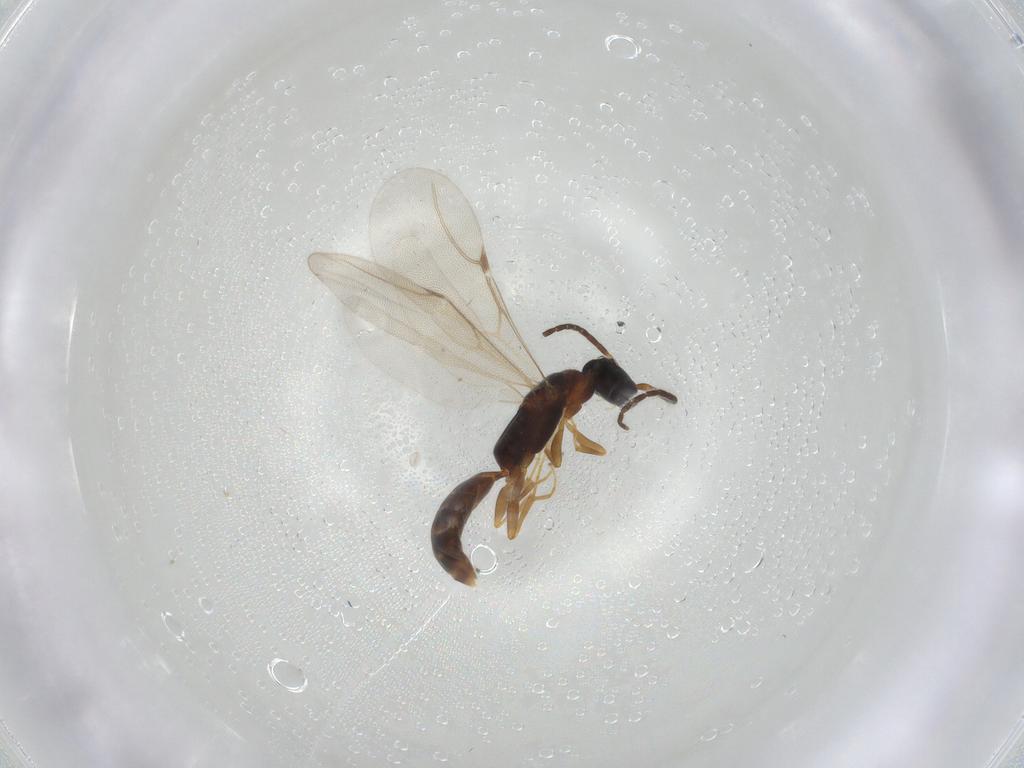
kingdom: Animalia
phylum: Arthropoda
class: Insecta
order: Hymenoptera
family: Bethylidae
